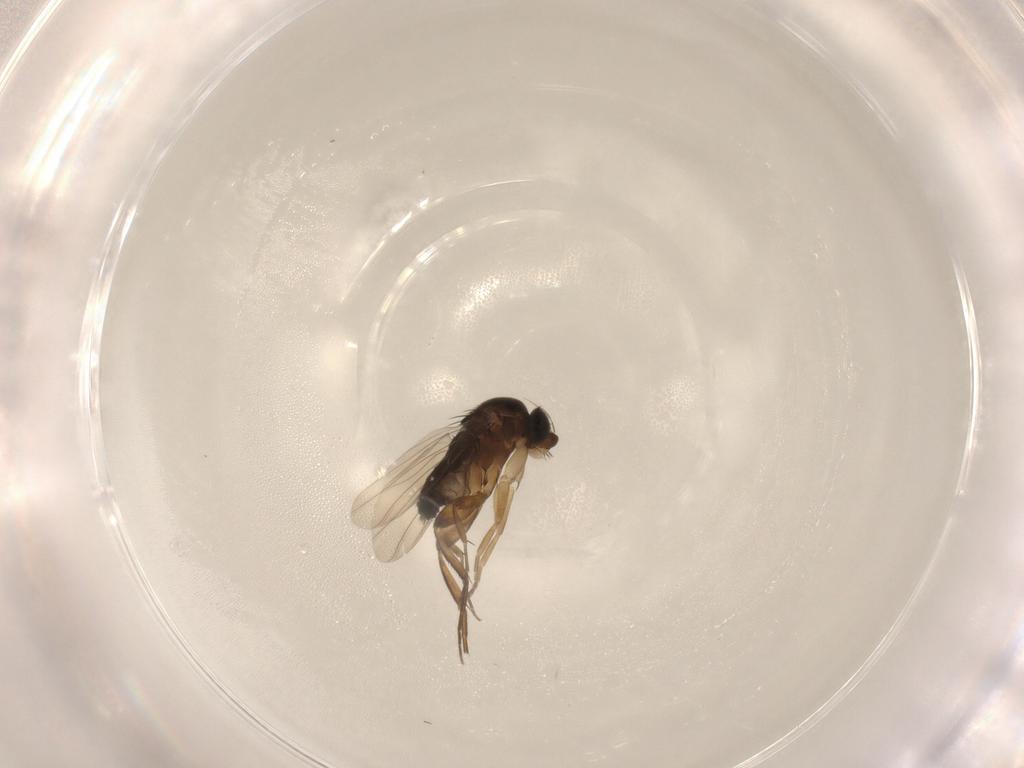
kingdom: Animalia
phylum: Arthropoda
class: Insecta
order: Diptera
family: Phoridae
